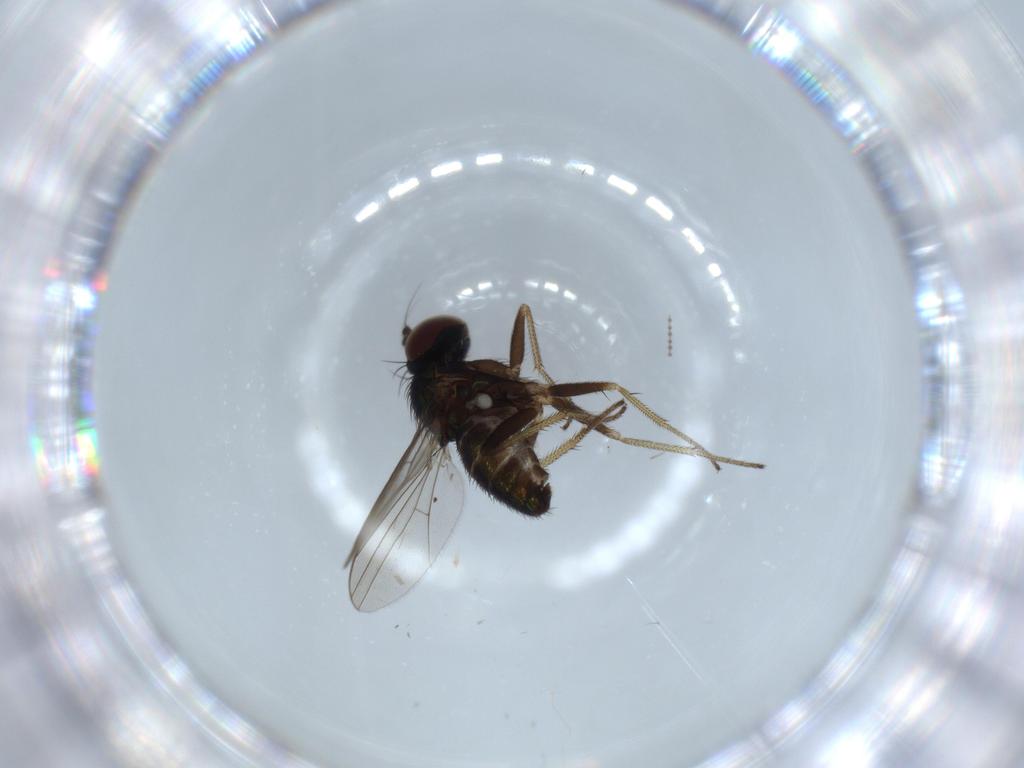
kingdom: Animalia
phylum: Arthropoda
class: Insecta
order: Diptera
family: Dolichopodidae
